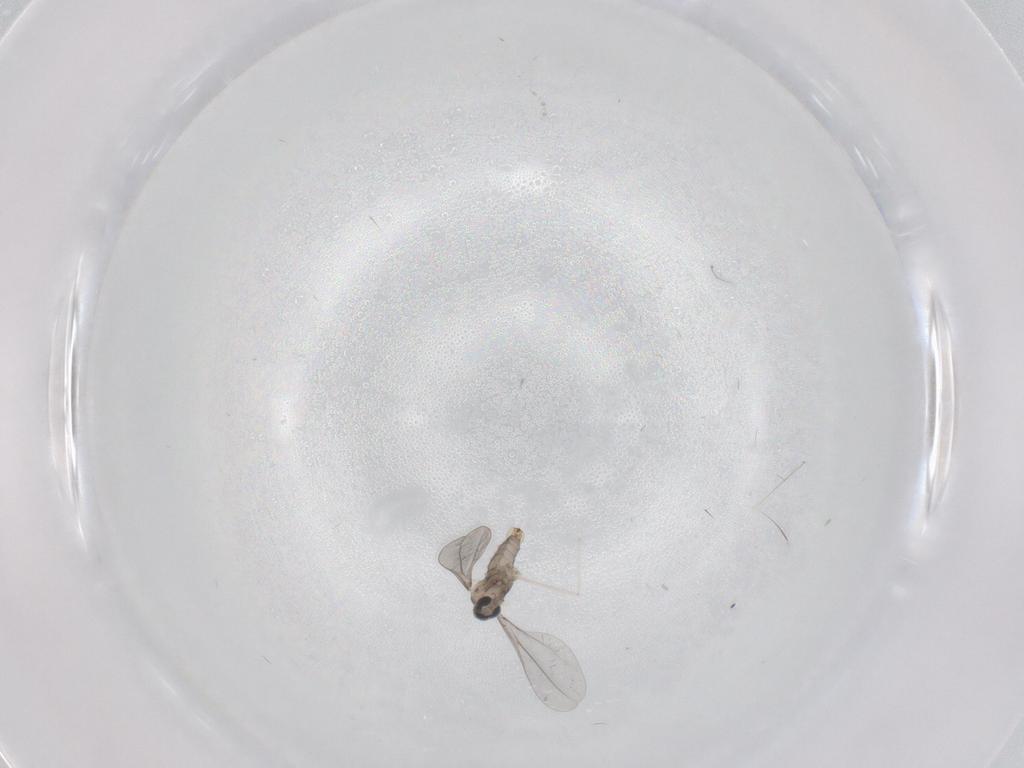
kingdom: Animalia
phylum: Arthropoda
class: Insecta
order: Diptera
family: Cecidomyiidae
